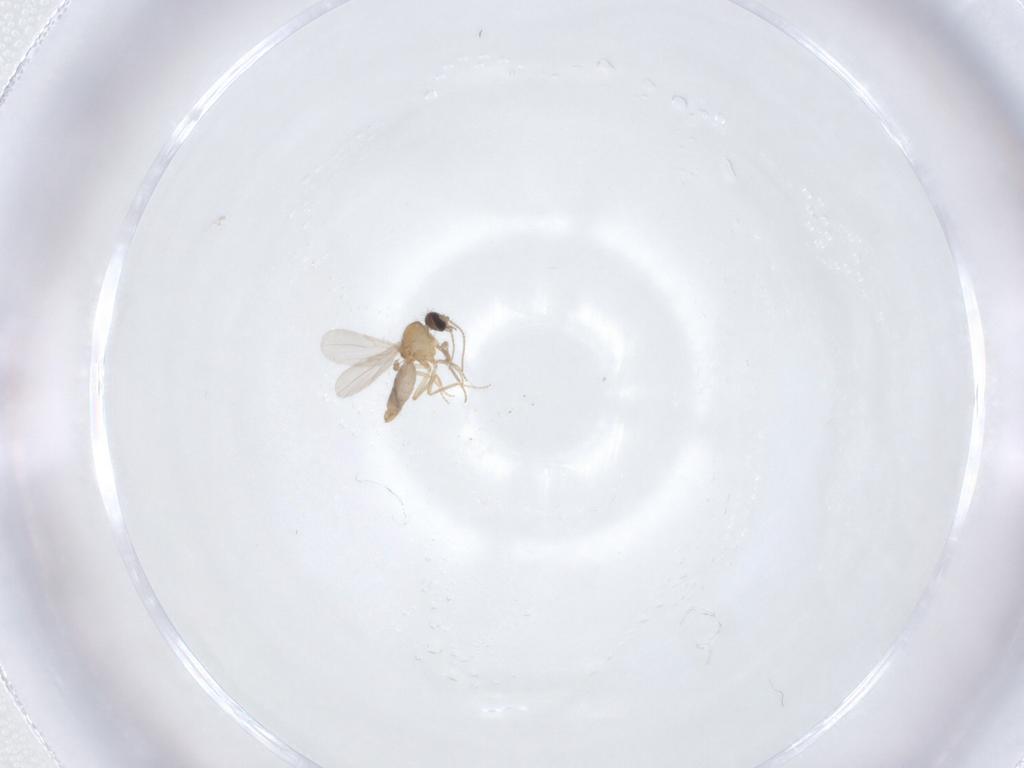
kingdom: Animalia
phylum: Arthropoda
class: Insecta
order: Diptera
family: Ceratopogonidae
